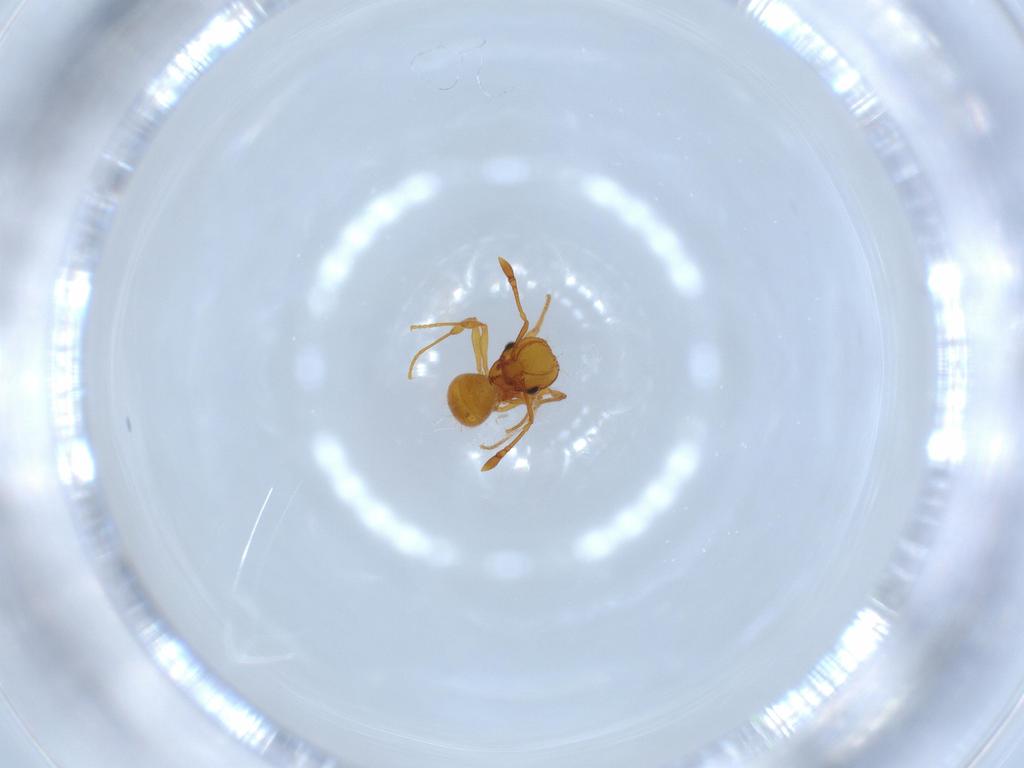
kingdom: Animalia
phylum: Arthropoda
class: Insecta
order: Hymenoptera
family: Formicidae
